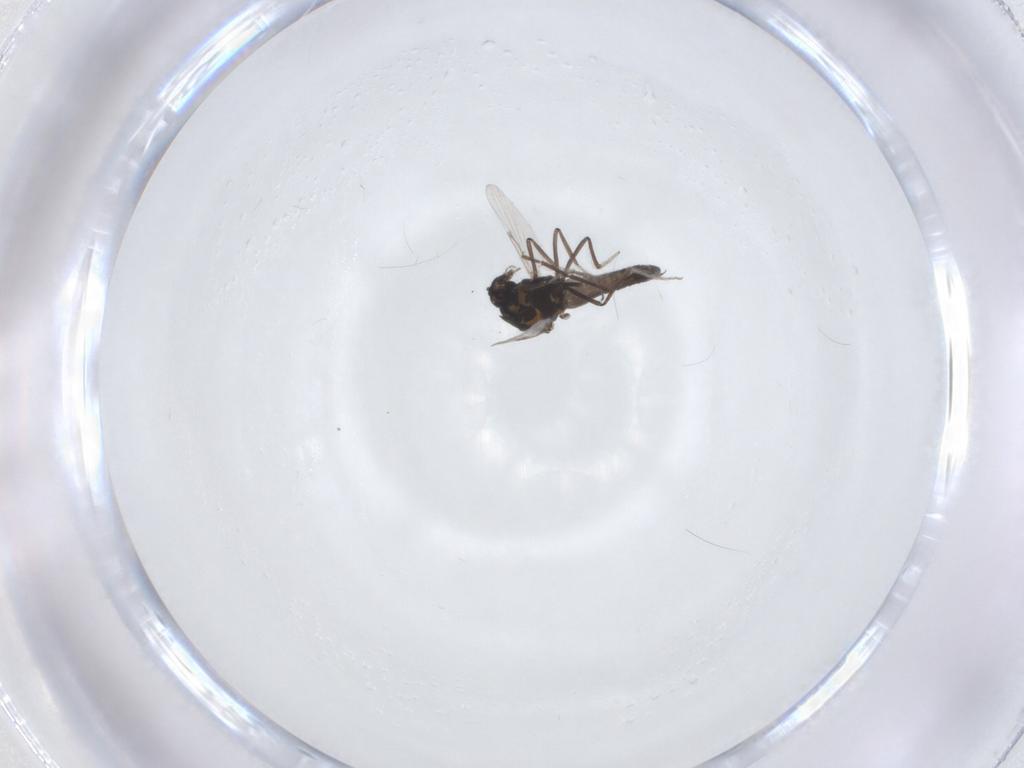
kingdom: Animalia
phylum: Arthropoda
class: Insecta
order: Diptera
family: Ceratopogonidae
